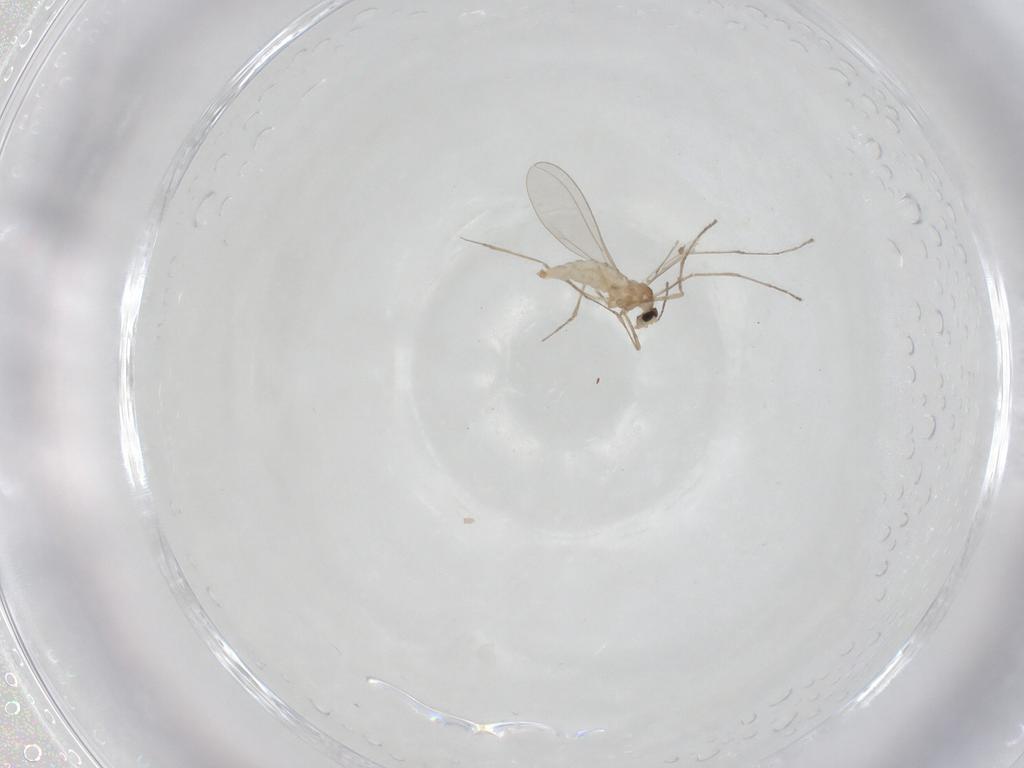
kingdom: Animalia
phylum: Arthropoda
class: Insecta
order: Diptera
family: Cecidomyiidae
